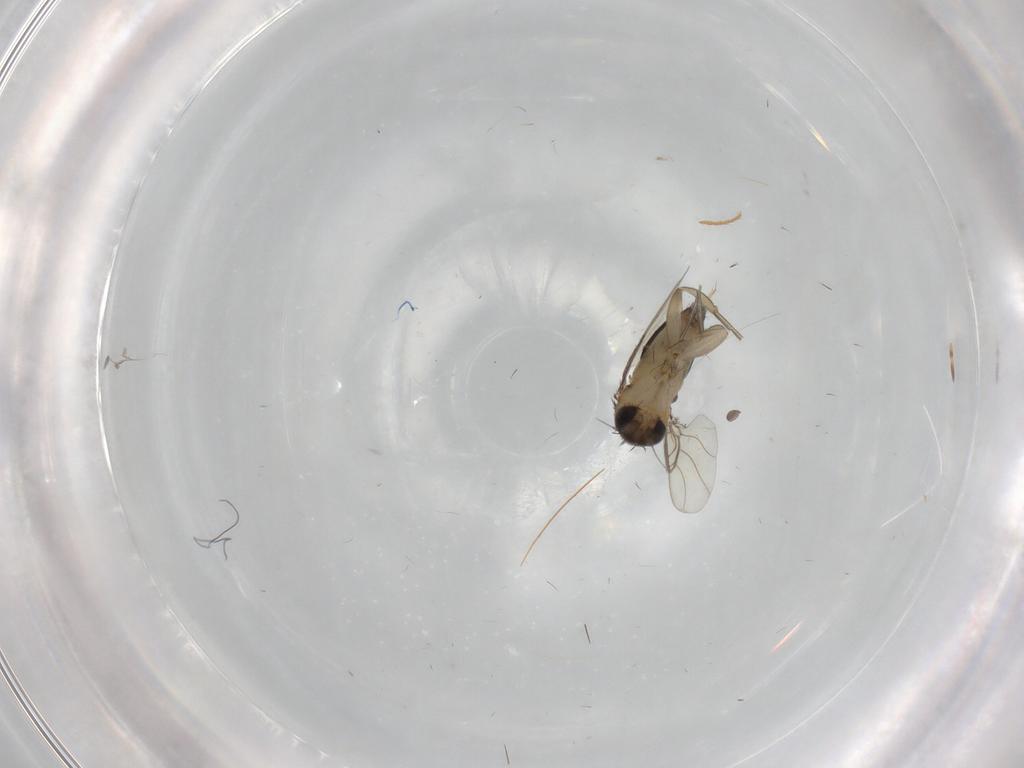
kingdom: Animalia
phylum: Arthropoda
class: Insecta
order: Diptera
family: Phoridae
